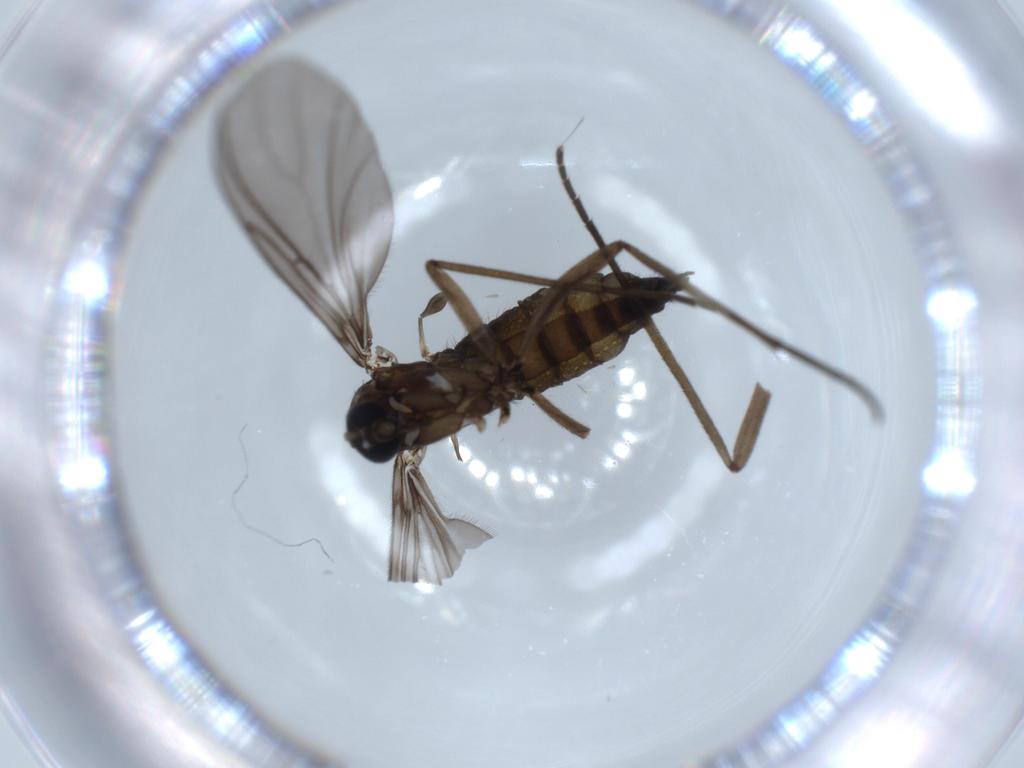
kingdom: Animalia
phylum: Arthropoda
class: Insecta
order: Diptera
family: Sciaridae
